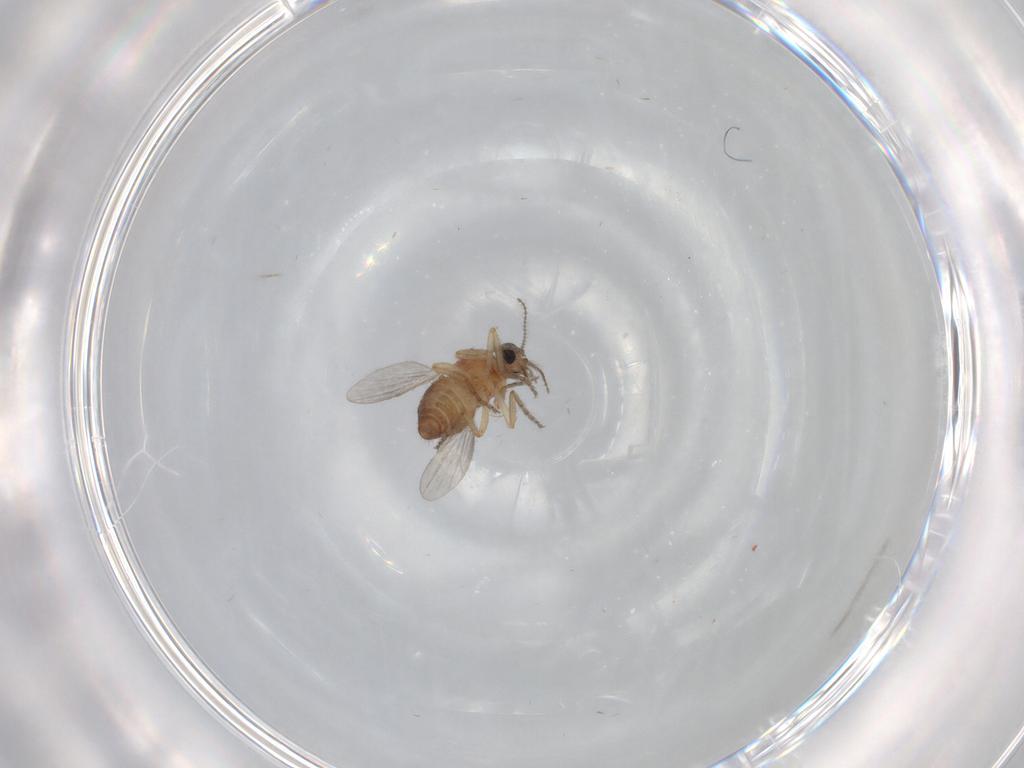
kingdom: Animalia
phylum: Arthropoda
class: Insecta
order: Diptera
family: Ceratopogonidae
